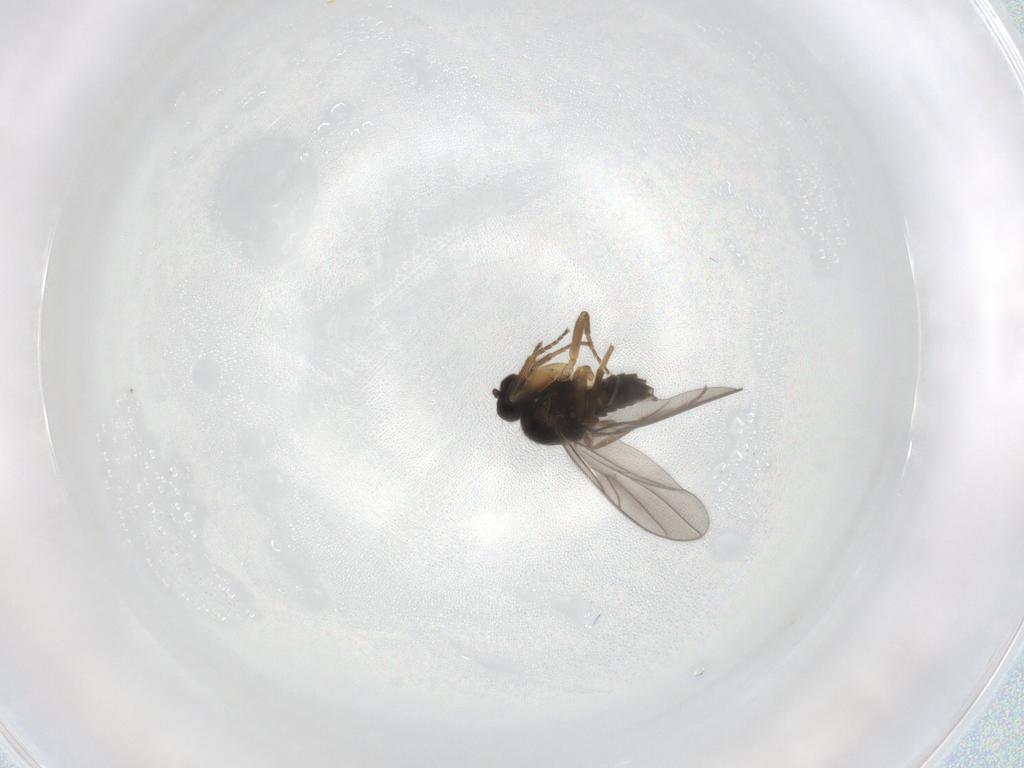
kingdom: Animalia
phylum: Arthropoda
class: Insecta
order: Diptera
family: Hybotidae
